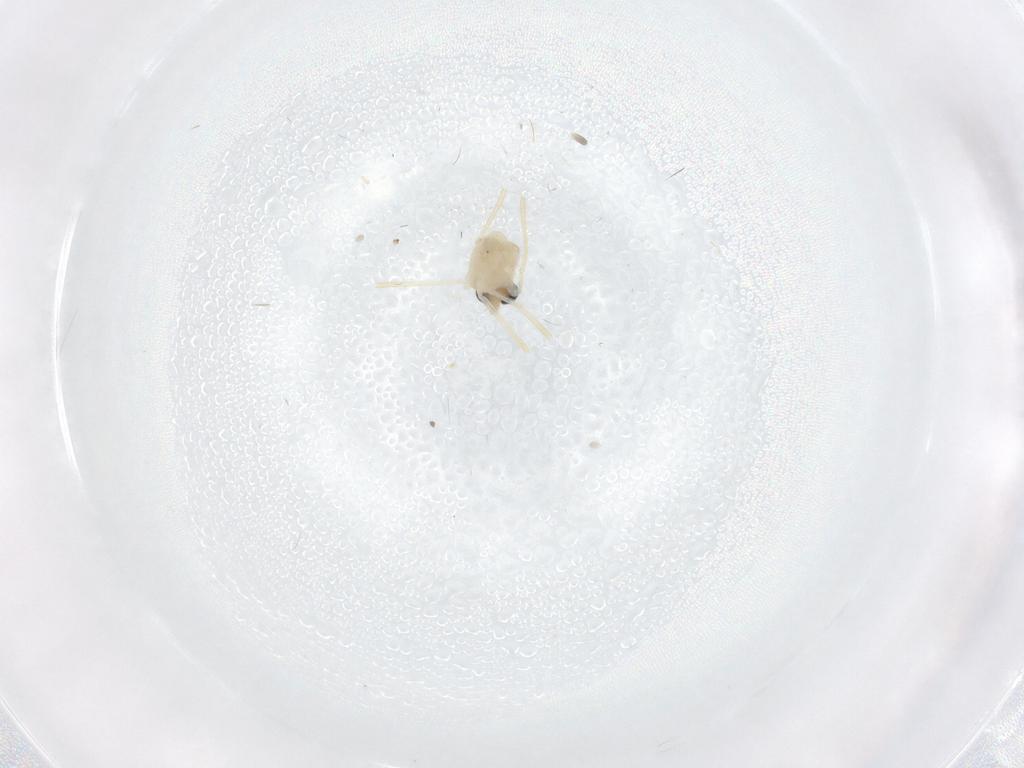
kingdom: Animalia
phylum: Arthropoda
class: Insecta
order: Diptera
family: Chironomidae
